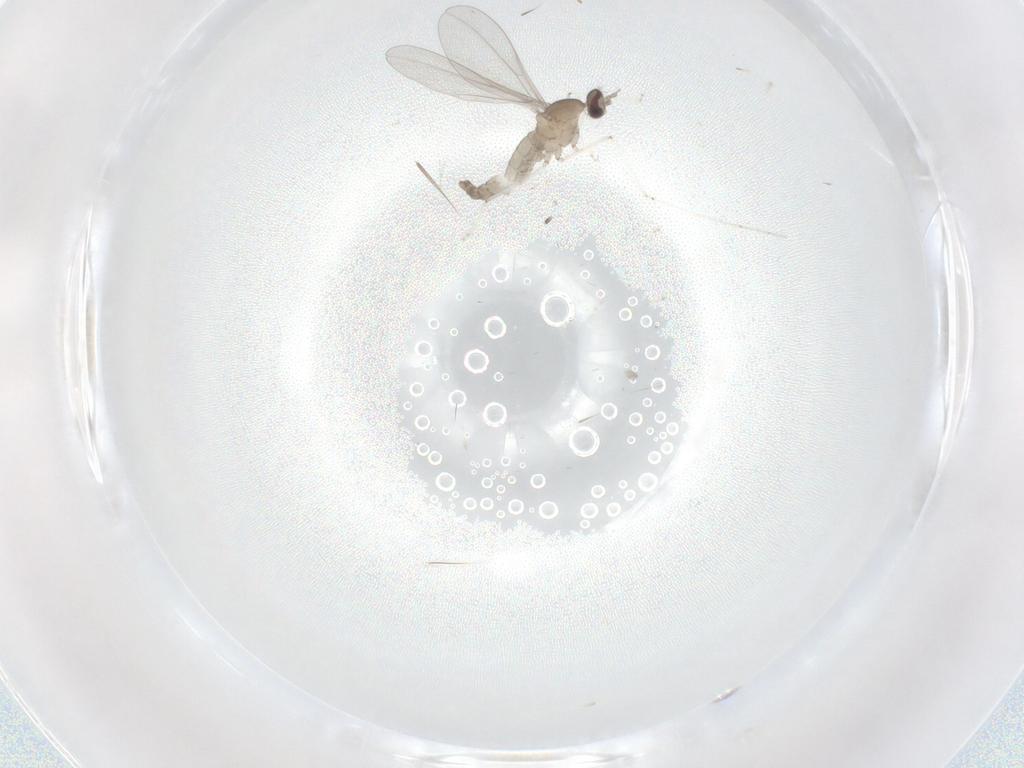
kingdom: Animalia
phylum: Arthropoda
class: Insecta
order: Diptera
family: Cecidomyiidae
